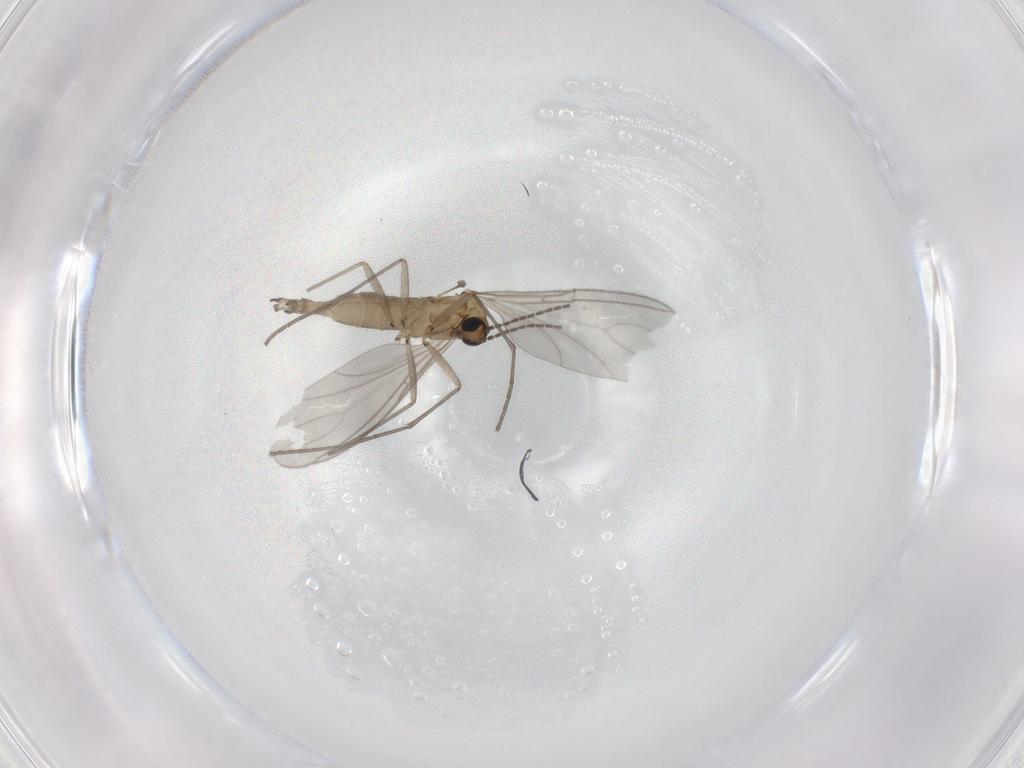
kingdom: Animalia
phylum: Arthropoda
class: Insecta
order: Diptera
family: Sciaridae
